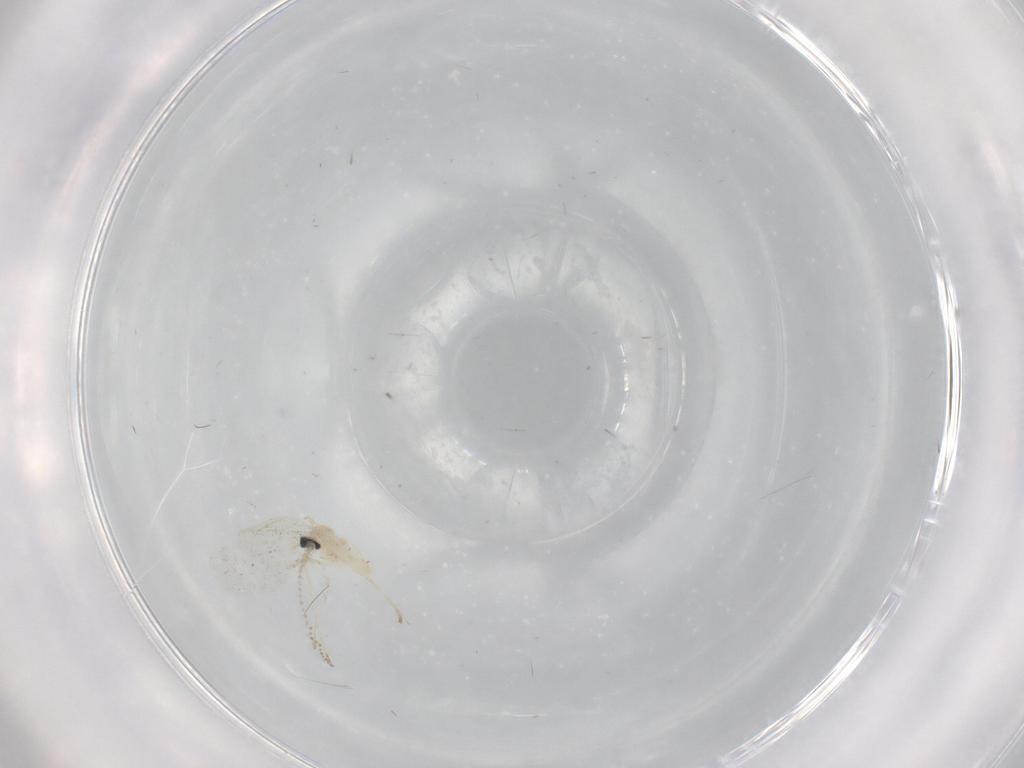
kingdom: Animalia
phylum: Arthropoda
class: Insecta
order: Diptera
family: Cecidomyiidae
